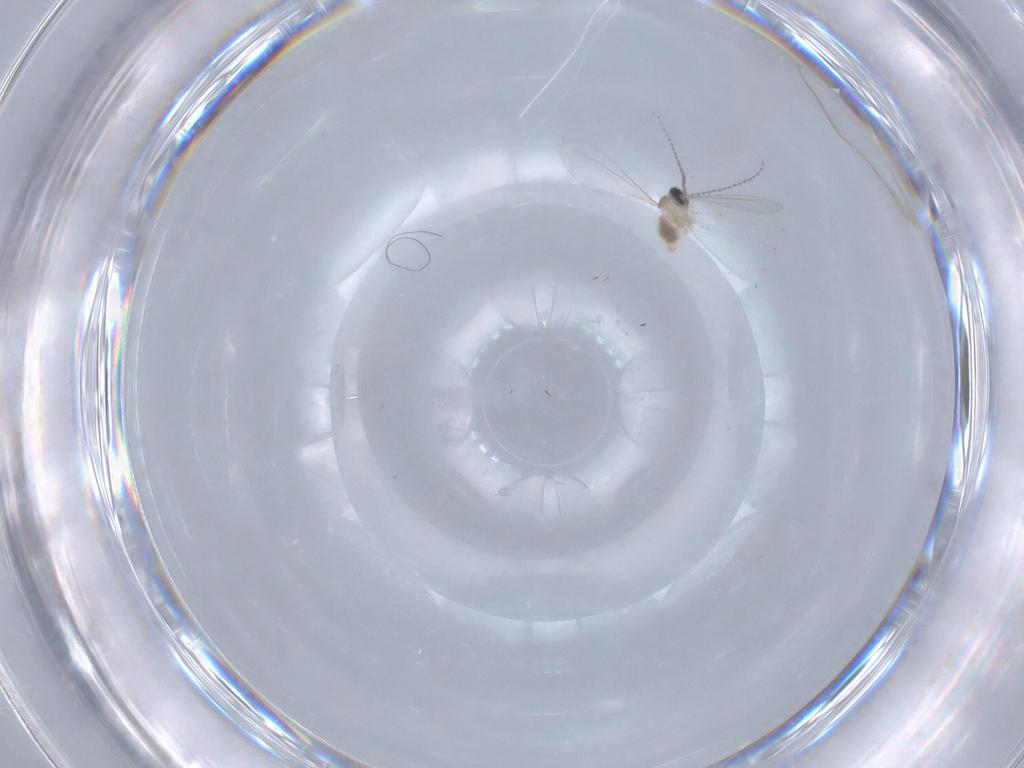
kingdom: Animalia
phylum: Arthropoda
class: Insecta
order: Diptera
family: Cecidomyiidae
